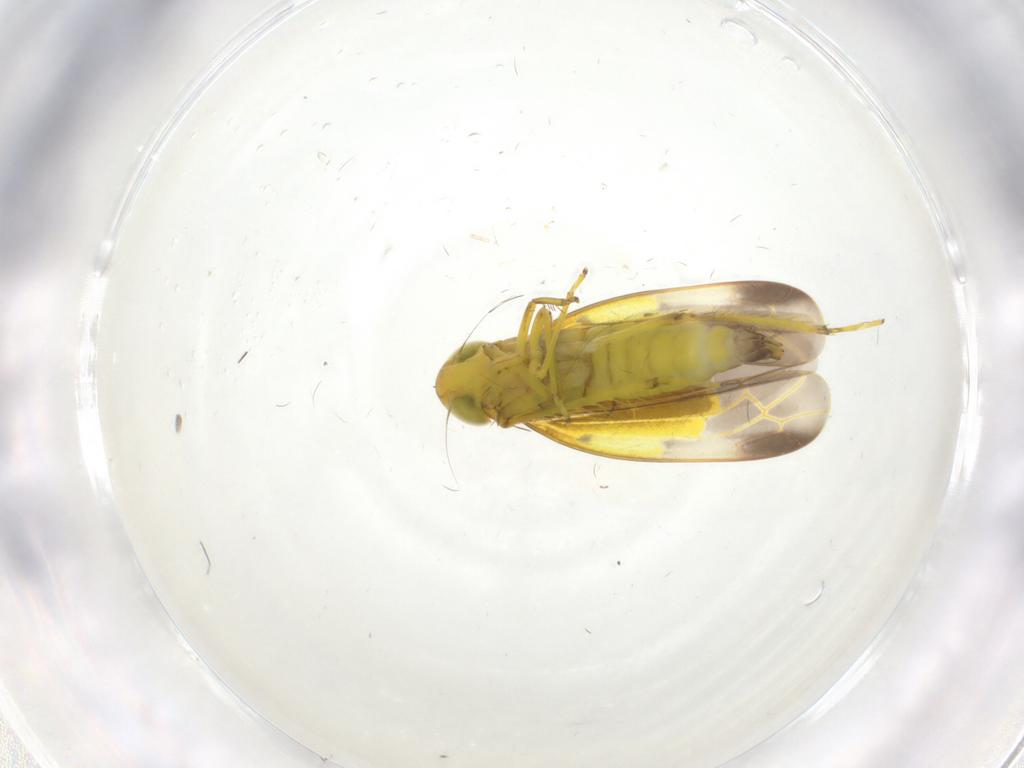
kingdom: Animalia
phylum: Arthropoda
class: Insecta
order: Hemiptera
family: Cicadellidae
